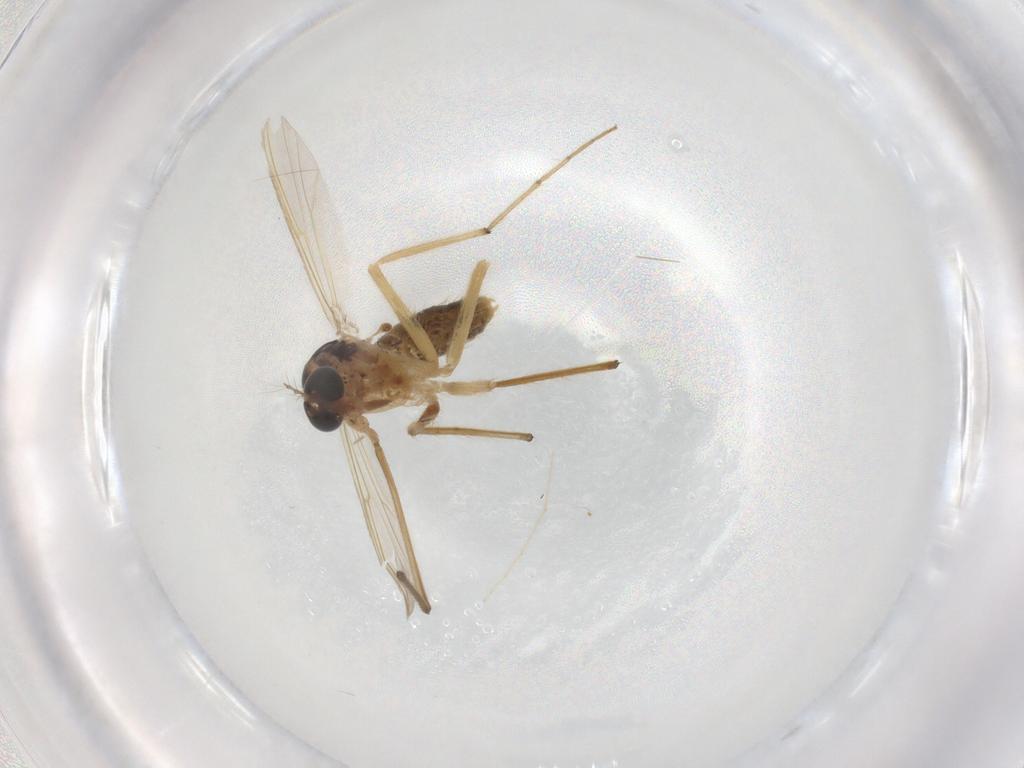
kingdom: Animalia
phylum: Arthropoda
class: Insecta
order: Diptera
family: Chironomidae
